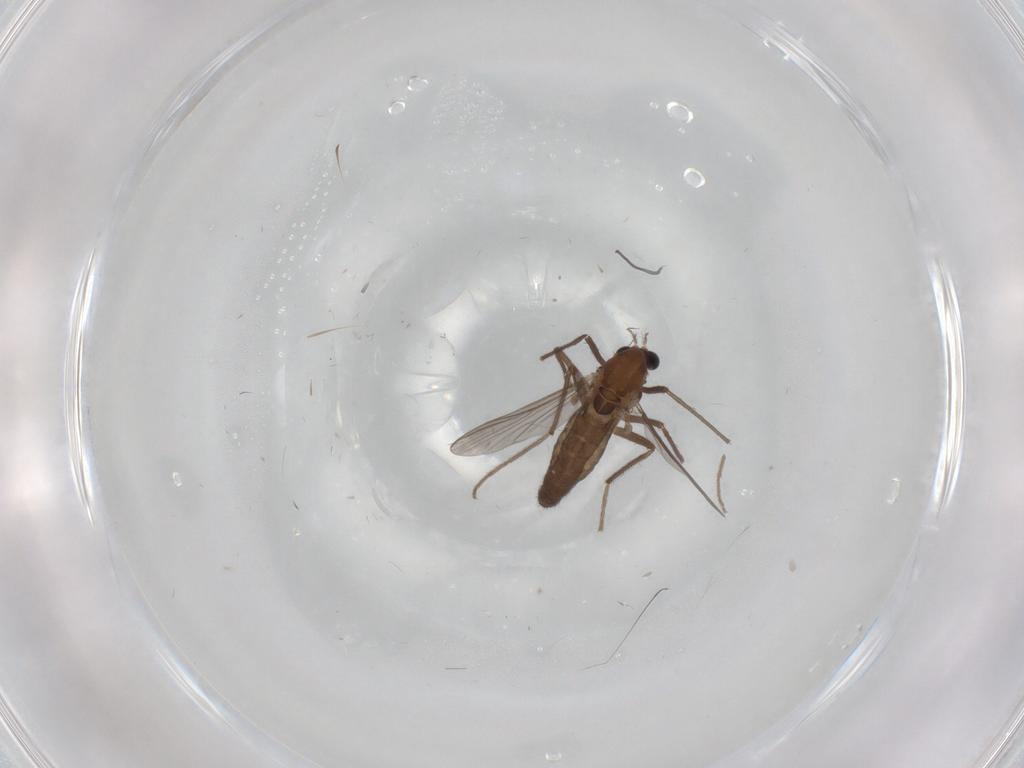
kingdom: Animalia
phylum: Arthropoda
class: Insecta
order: Diptera
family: Chironomidae
